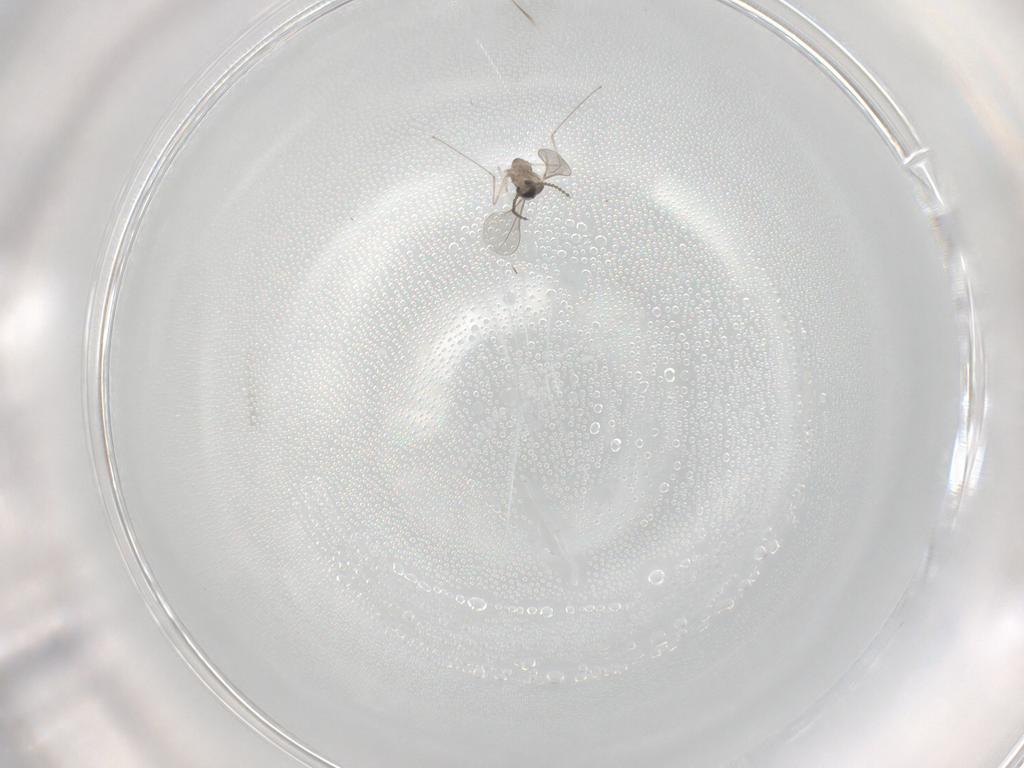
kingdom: Animalia
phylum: Arthropoda
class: Insecta
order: Diptera
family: Cecidomyiidae
